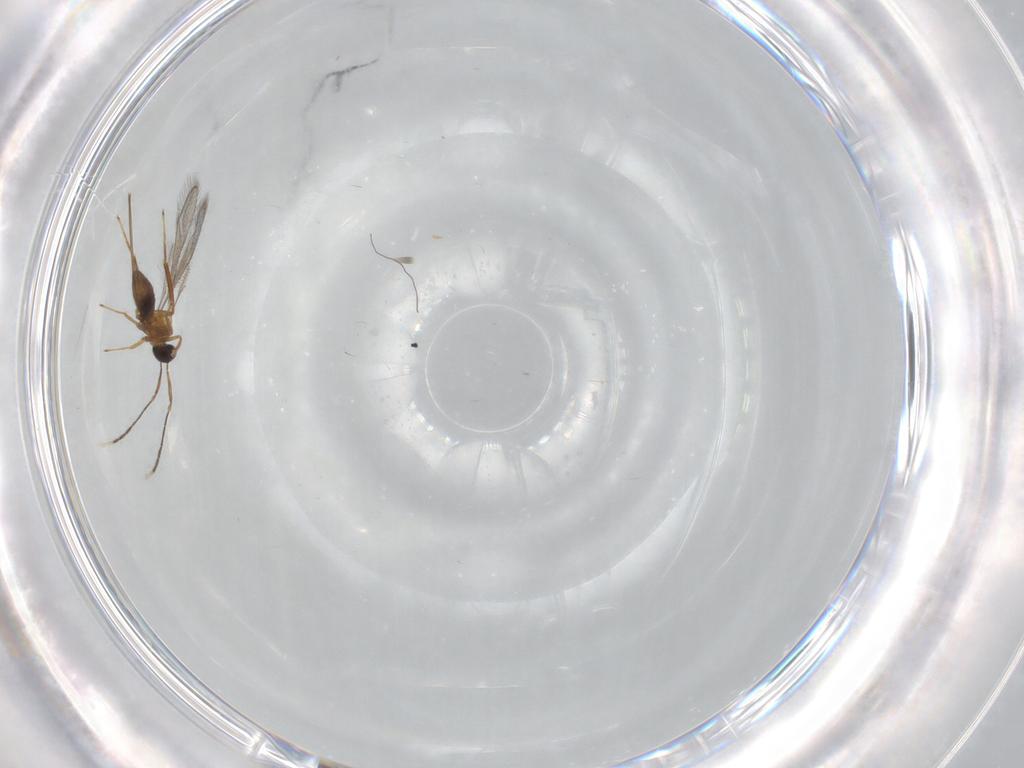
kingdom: Animalia
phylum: Arthropoda
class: Insecta
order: Hymenoptera
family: Mymaridae
